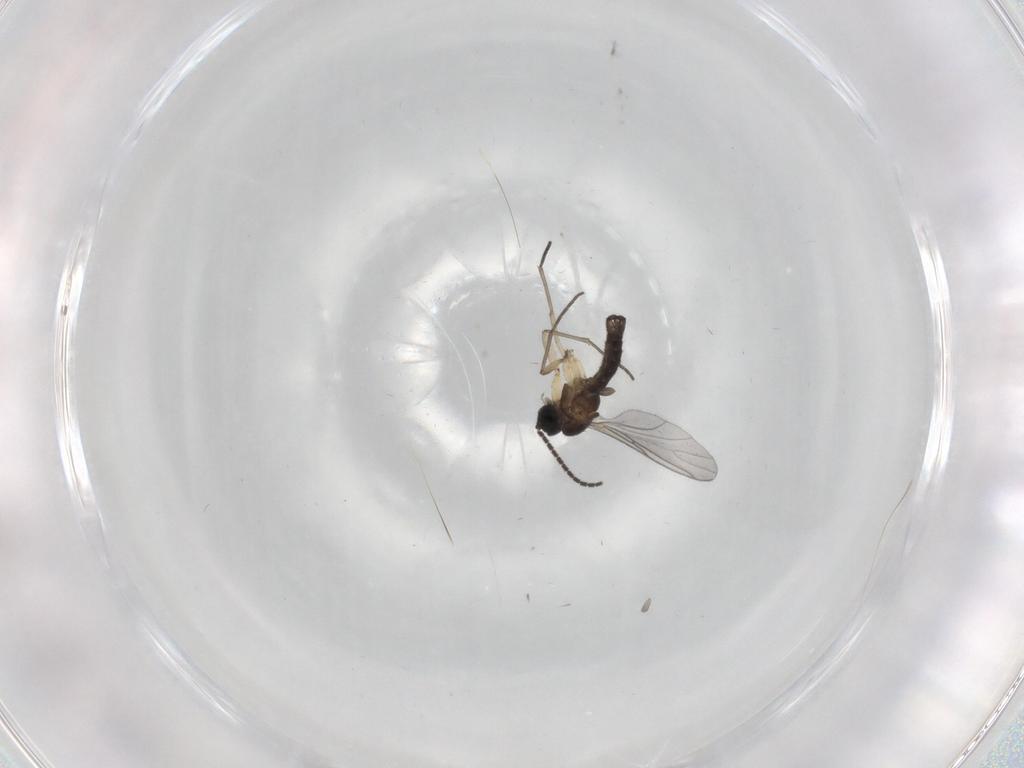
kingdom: Animalia
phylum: Arthropoda
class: Insecta
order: Diptera
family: Sciaridae
